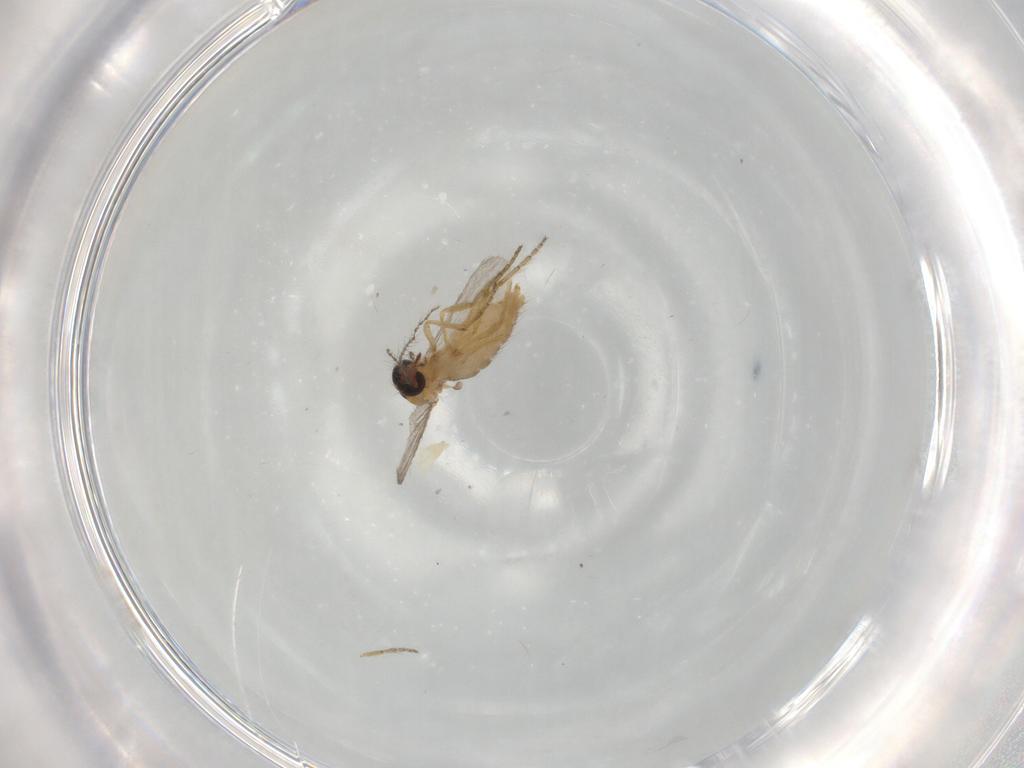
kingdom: Animalia
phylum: Arthropoda
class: Insecta
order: Diptera
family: Ceratopogonidae
